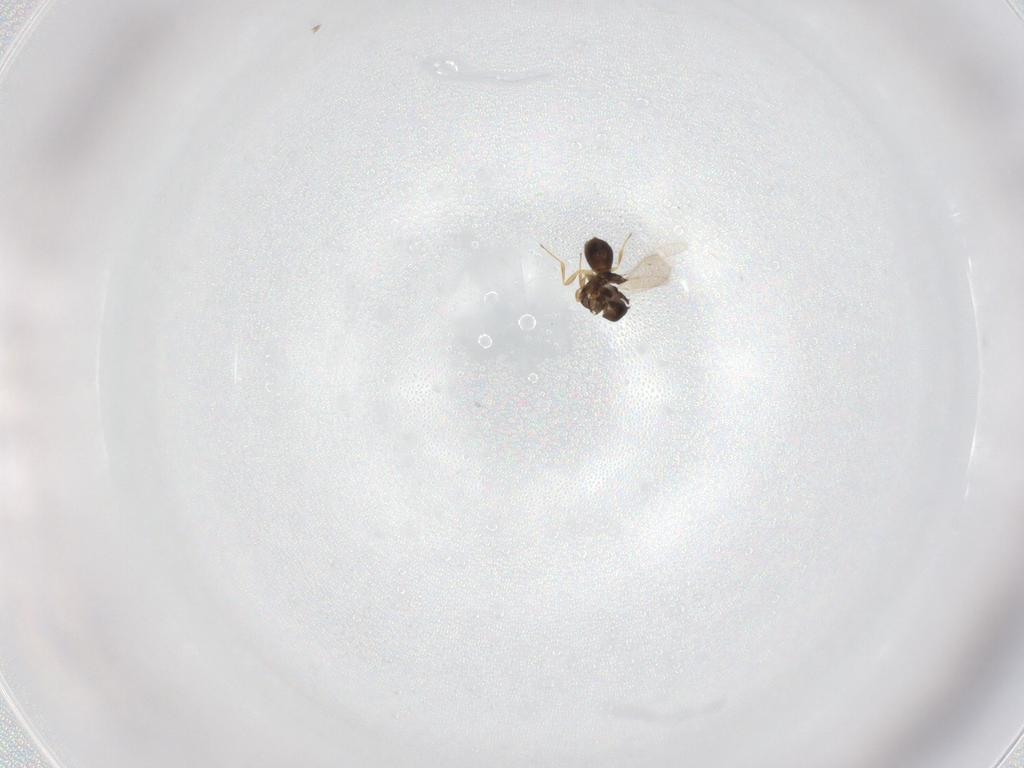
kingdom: Animalia
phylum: Arthropoda
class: Insecta
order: Hymenoptera
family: Scelionidae
